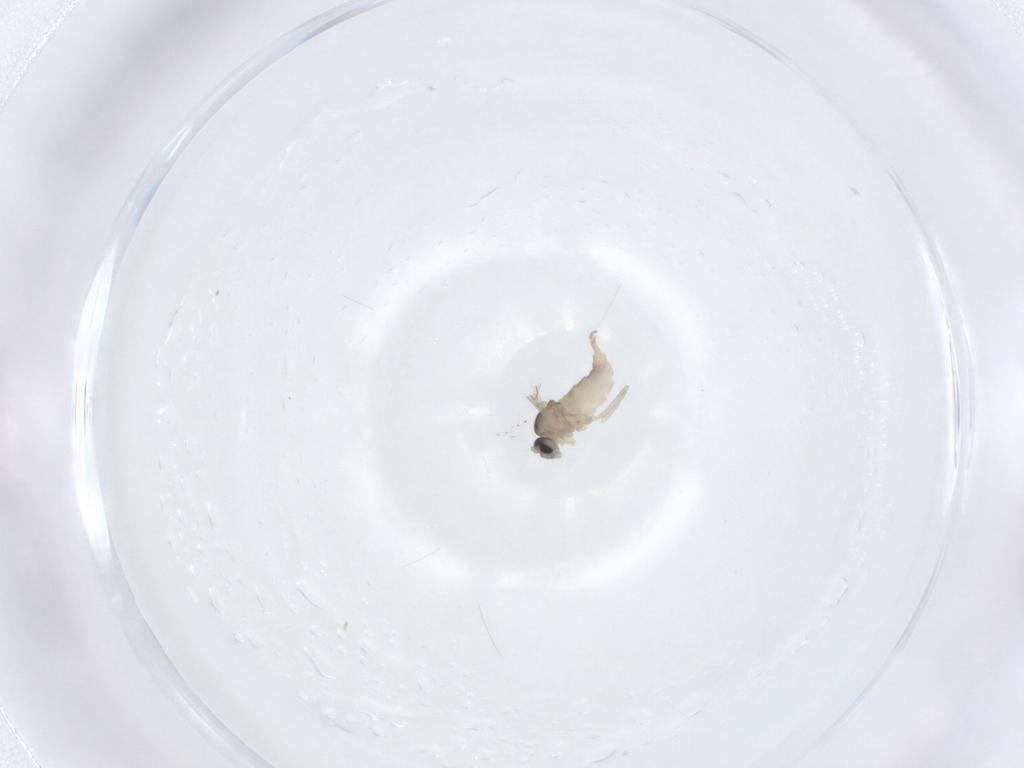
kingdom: Animalia
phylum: Arthropoda
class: Insecta
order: Diptera
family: Cecidomyiidae
